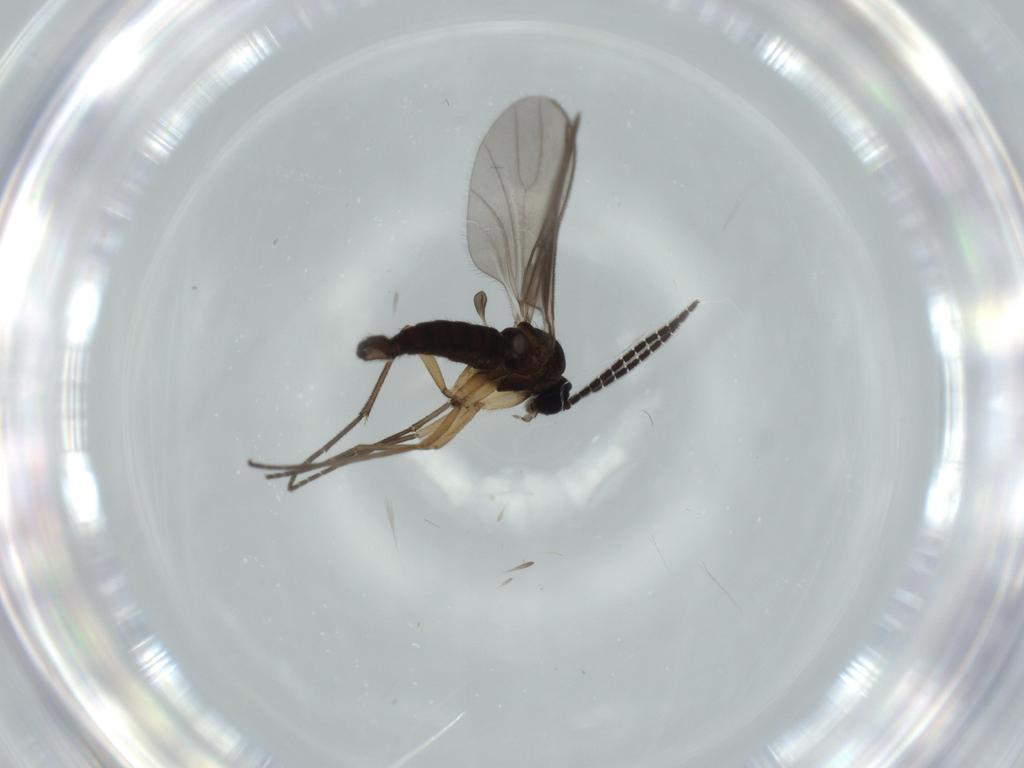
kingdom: Animalia
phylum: Arthropoda
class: Insecta
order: Diptera
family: Sciaridae
